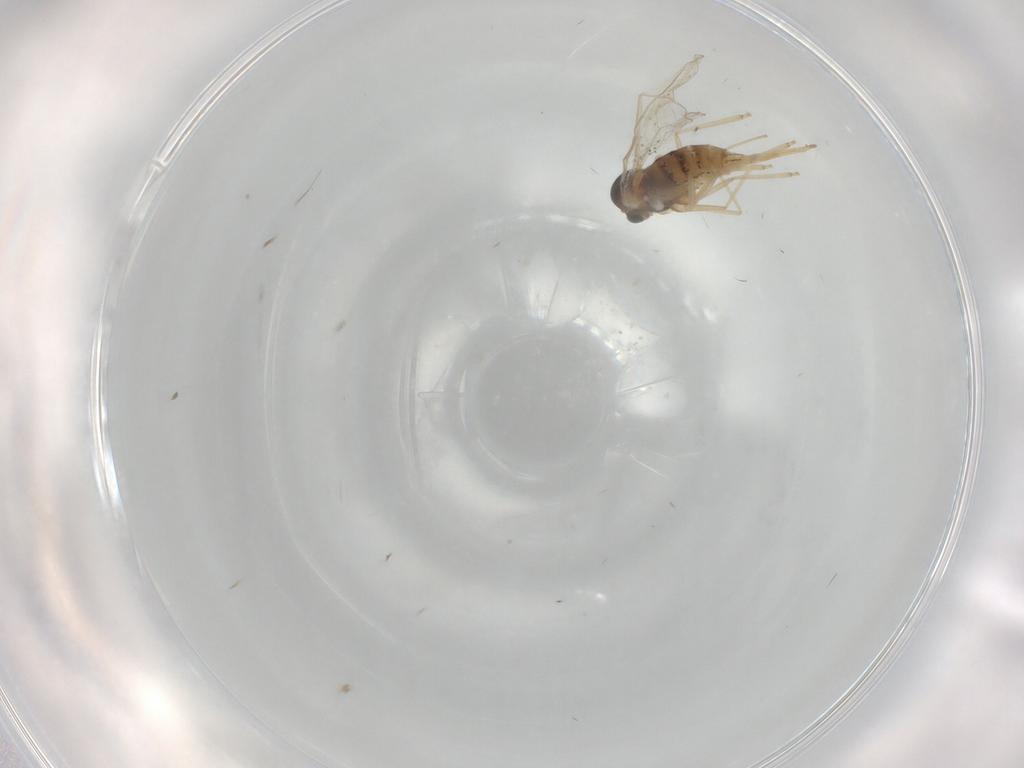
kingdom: Animalia
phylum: Arthropoda
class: Insecta
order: Diptera
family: Cecidomyiidae
